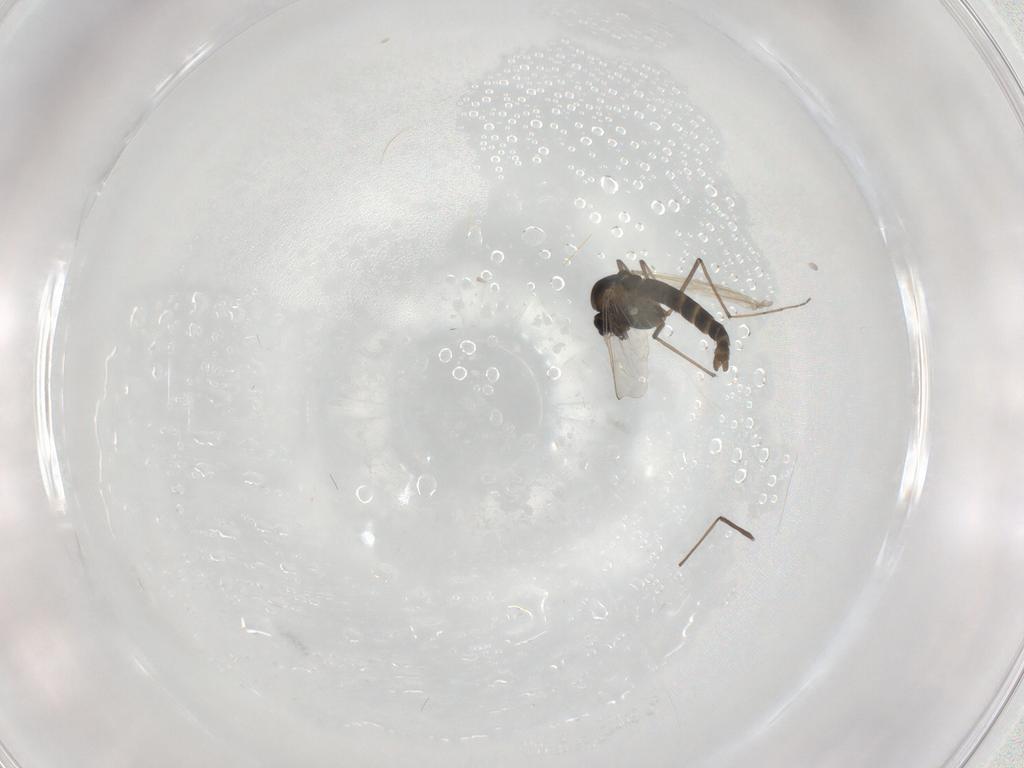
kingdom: Animalia
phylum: Arthropoda
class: Insecta
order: Diptera
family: Chironomidae
